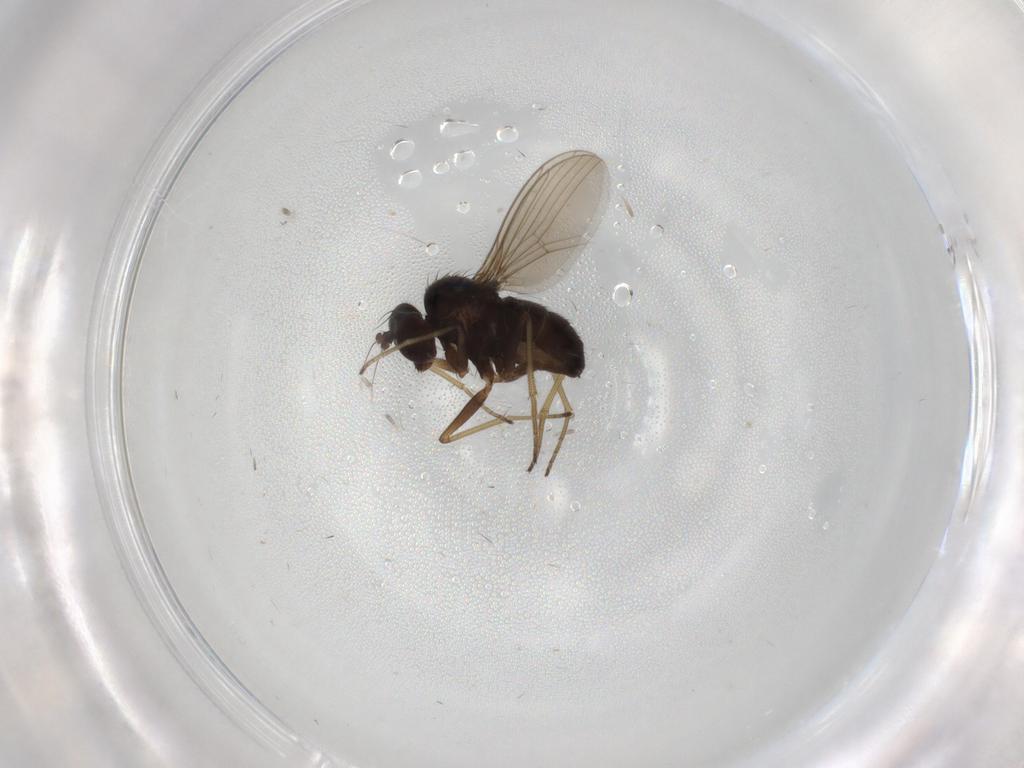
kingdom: Animalia
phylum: Arthropoda
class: Insecta
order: Diptera
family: Dolichopodidae
